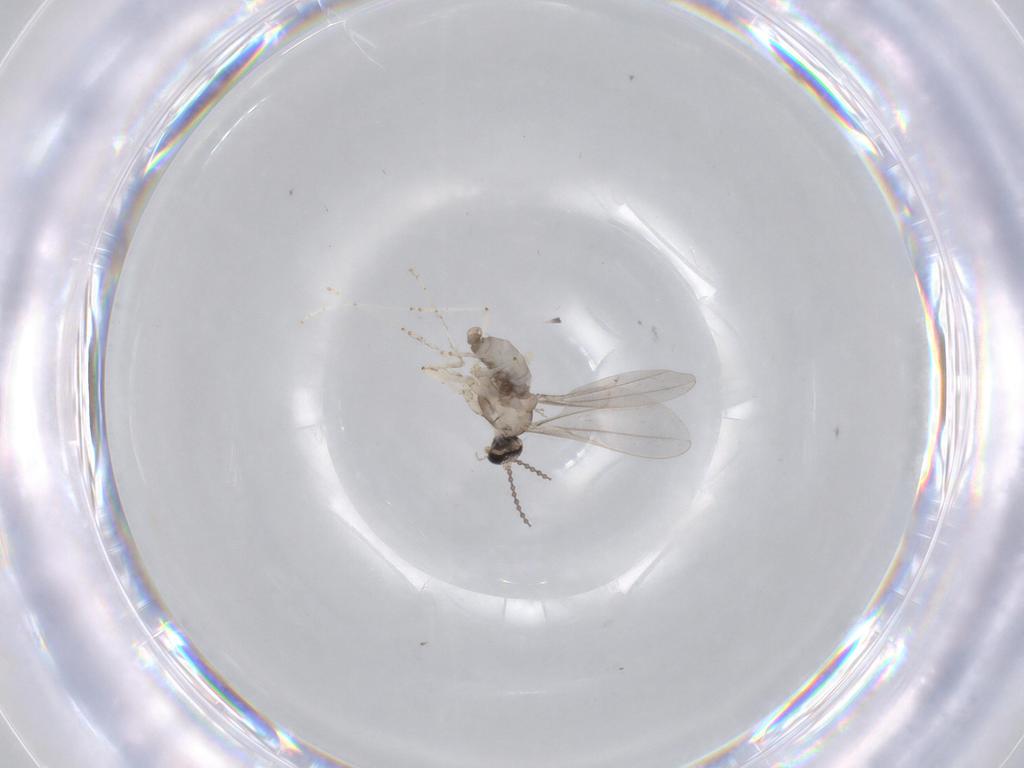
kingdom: Animalia
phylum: Arthropoda
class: Insecta
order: Diptera
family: Cecidomyiidae
